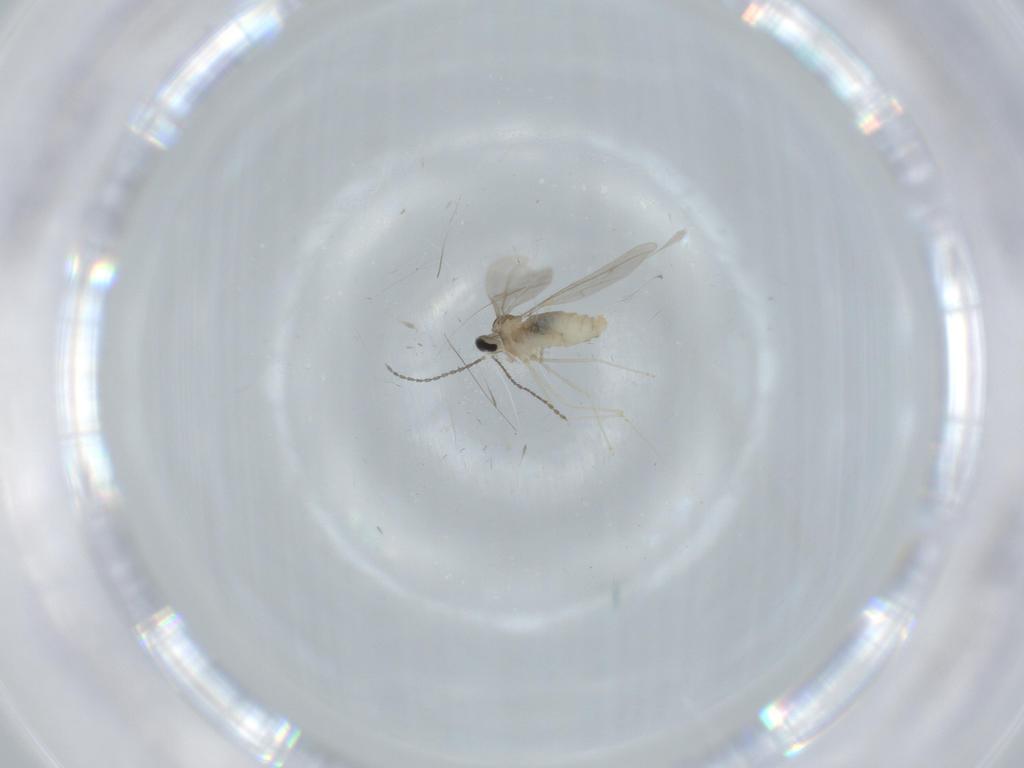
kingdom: Animalia
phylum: Arthropoda
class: Insecta
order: Diptera
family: Cecidomyiidae
